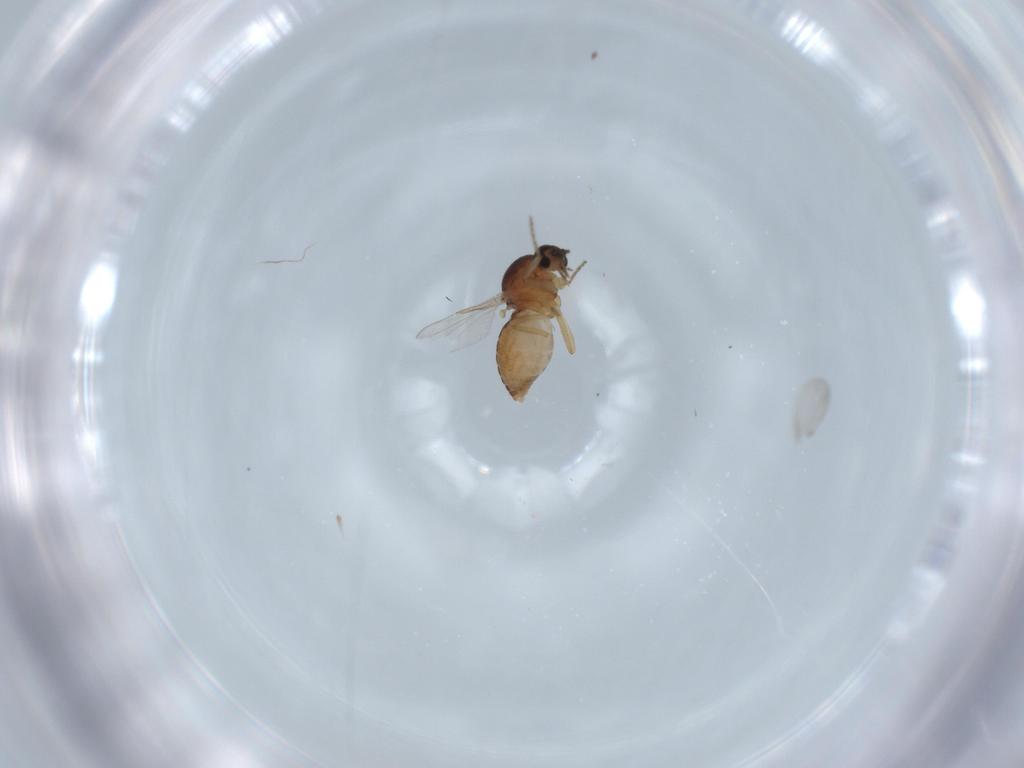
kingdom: Animalia
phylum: Arthropoda
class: Insecta
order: Diptera
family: Ceratopogonidae
